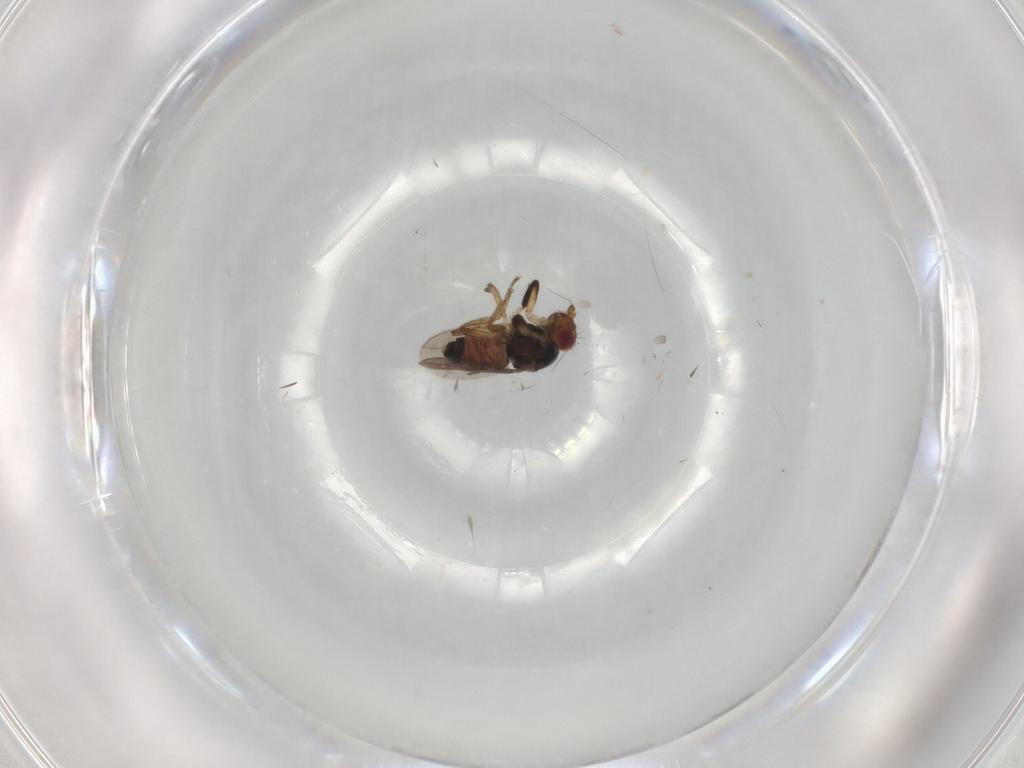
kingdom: Animalia
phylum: Arthropoda
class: Insecta
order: Diptera
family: Sphaeroceridae
